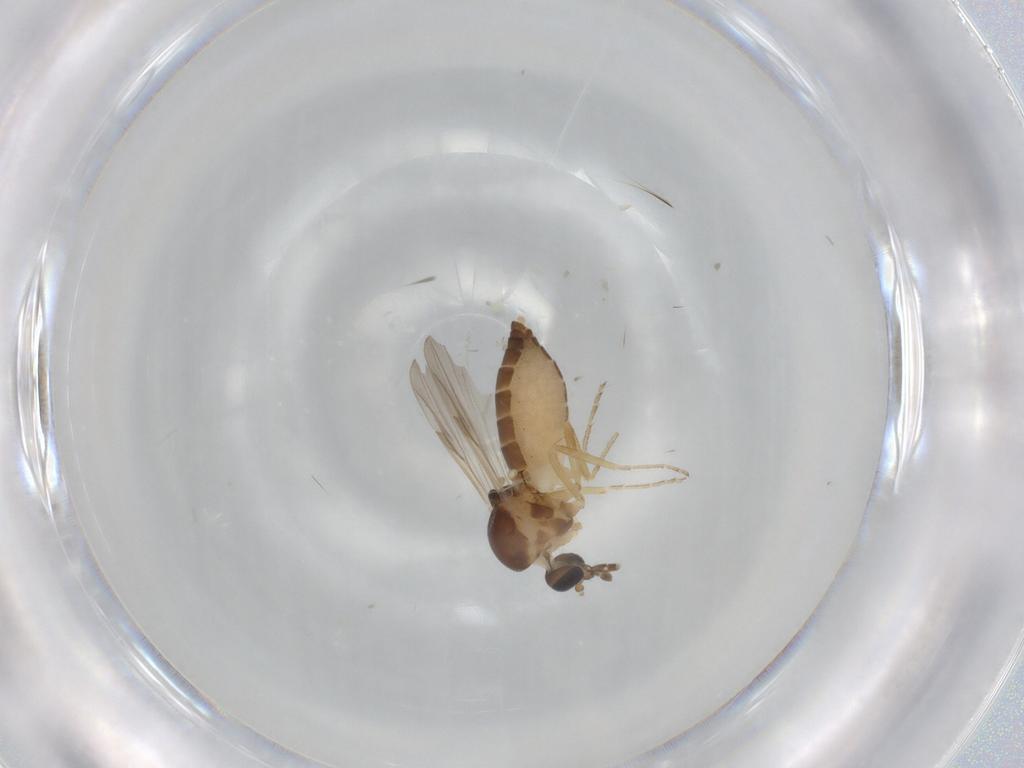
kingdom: Animalia
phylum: Arthropoda
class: Insecta
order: Diptera
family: Ceratopogonidae
